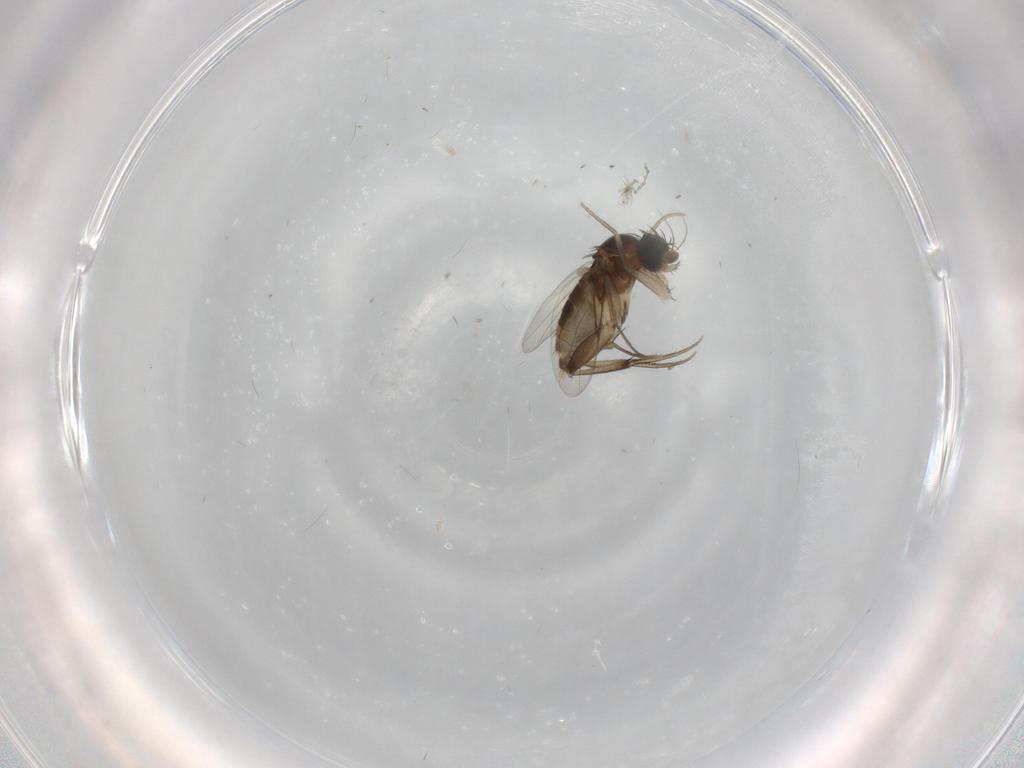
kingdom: Animalia
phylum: Arthropoda
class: Insecta
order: Diptera
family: Phoridae
